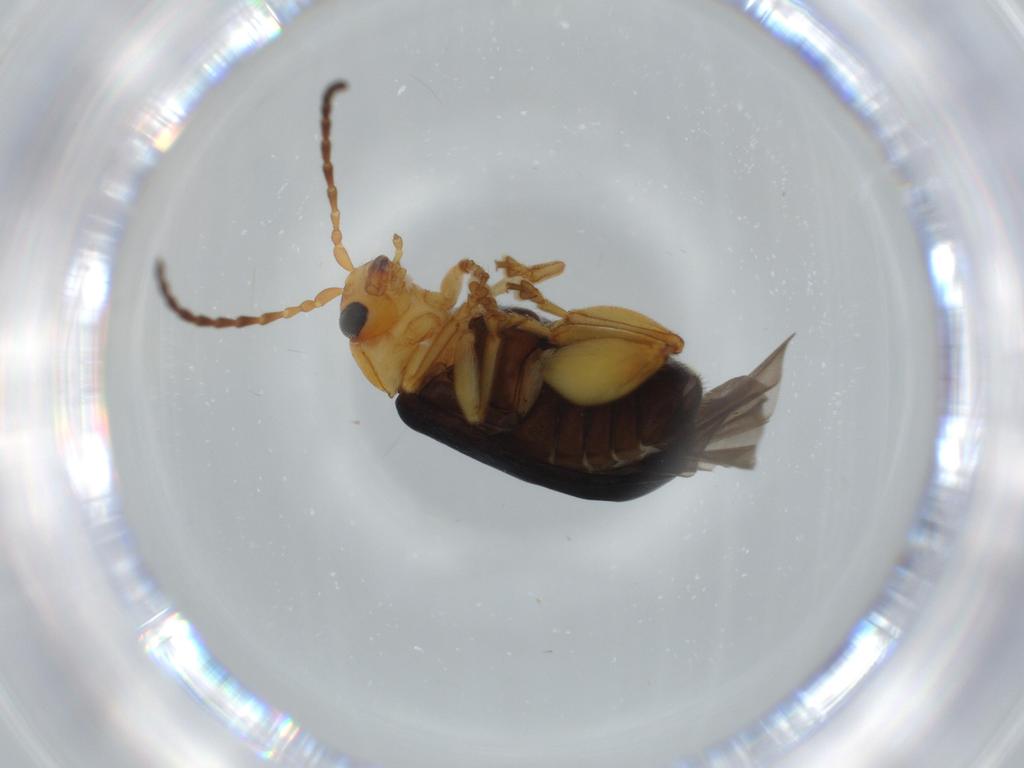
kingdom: Animalia
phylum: Arthropoda
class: Insecta
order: Coleoptera
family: Chrysomelidae
